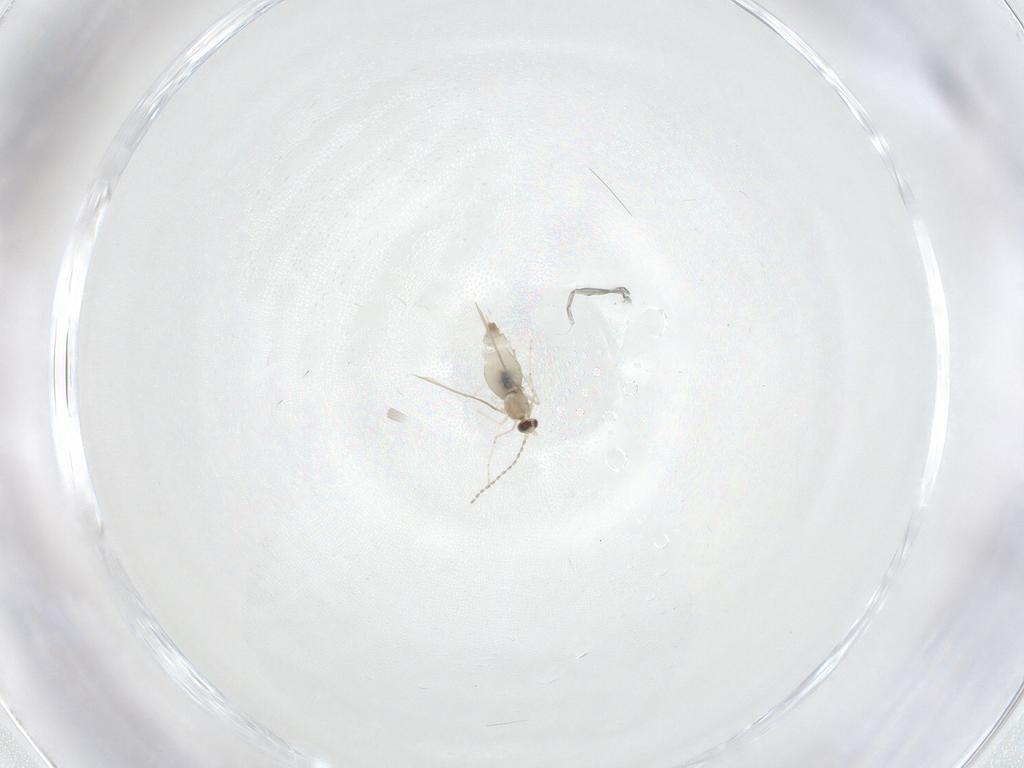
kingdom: Animalia
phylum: Arthropoda
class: Insecta
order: Diptera
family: Cecidomyiidae
